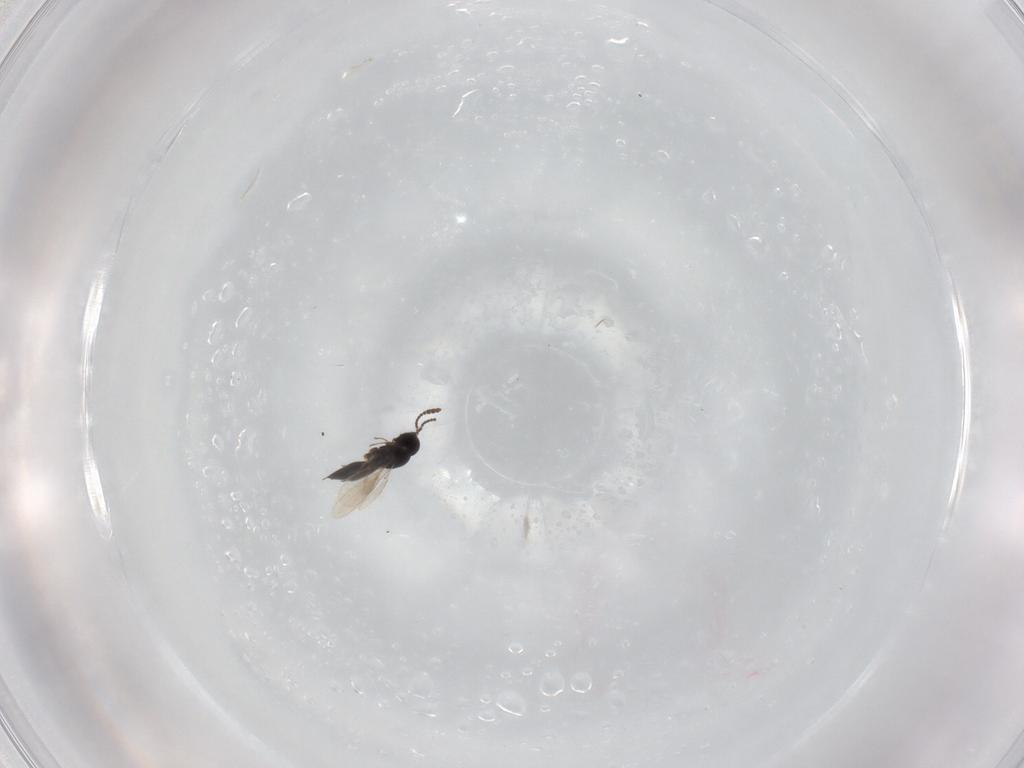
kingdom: Animalia
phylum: Arthropoda
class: Insecta
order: Hymenoptera
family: Scelionidae
